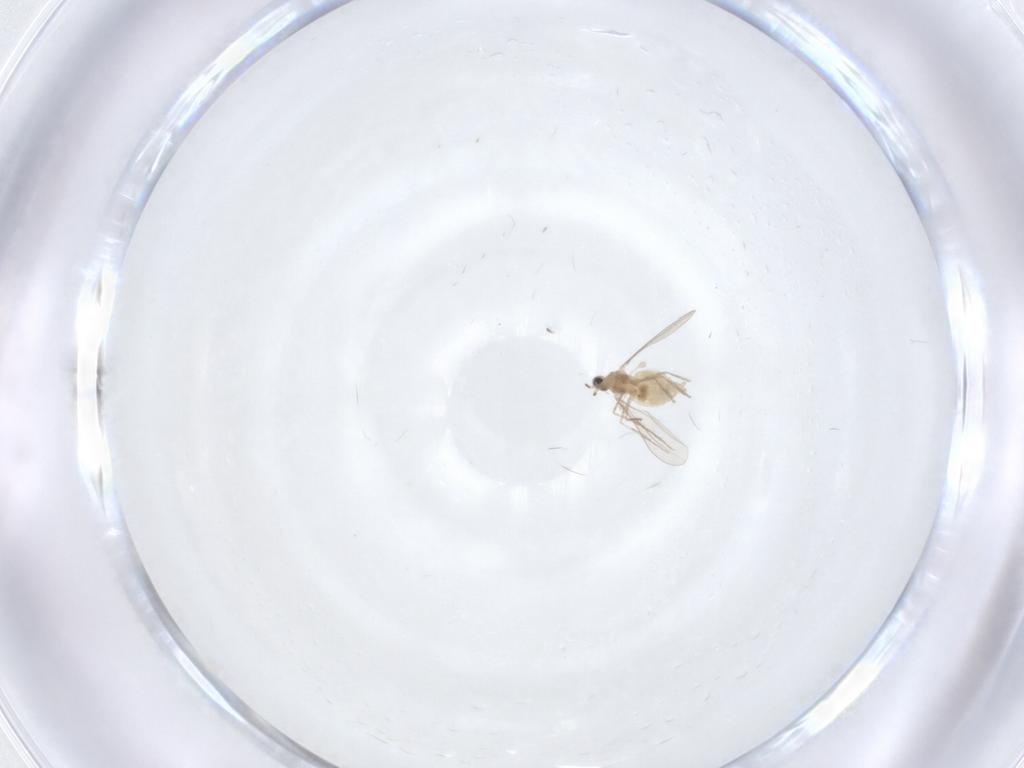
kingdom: Animalia
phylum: Arthropoda
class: Insecta
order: Diptera
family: Cecidomyiidae
